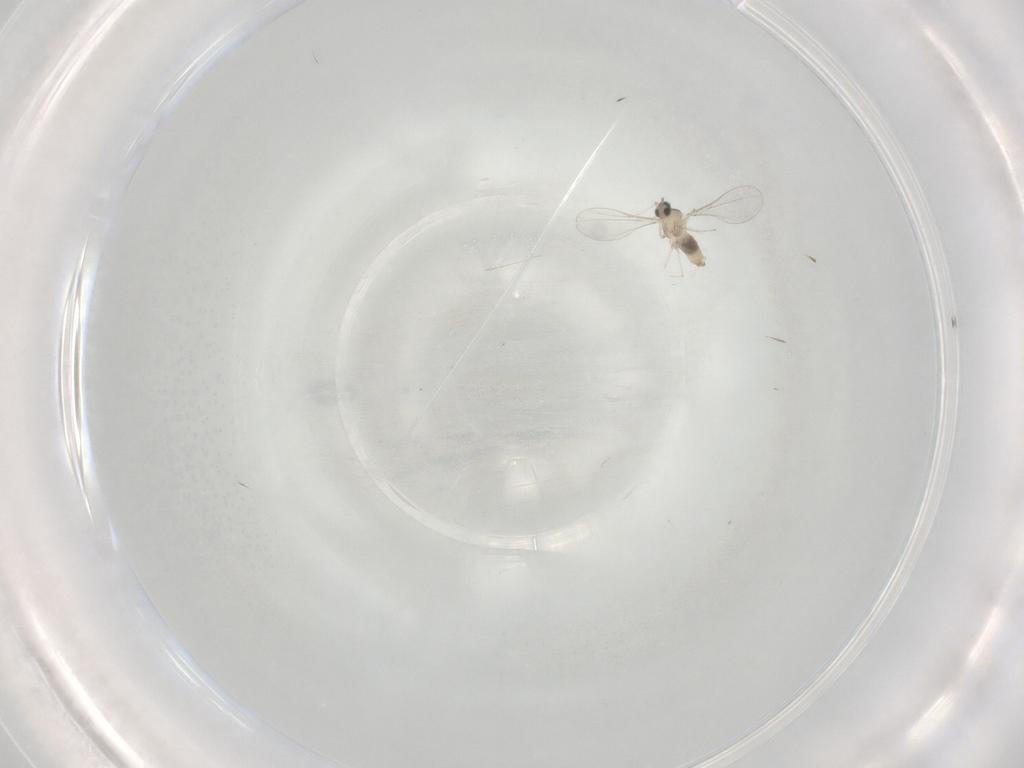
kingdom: Animalia
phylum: Arthropoda
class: Insecta
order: Diptera
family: Cecidomyiidae
